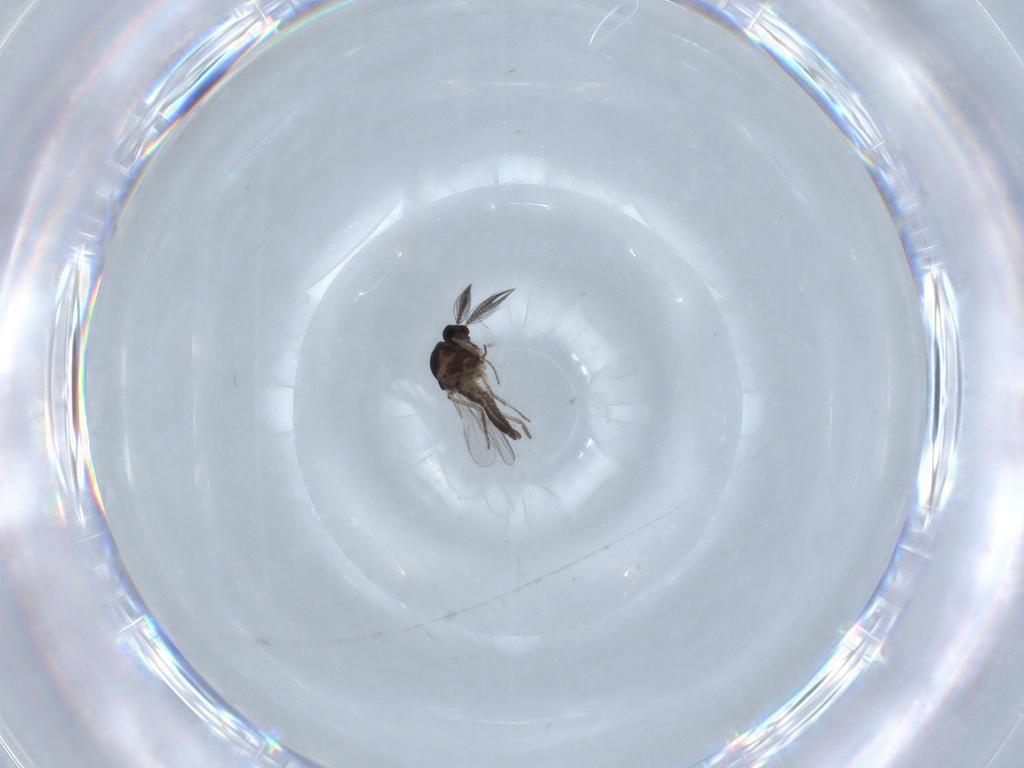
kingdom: Animalia
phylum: Arthropoda
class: Insecta
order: Diptera
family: Ceratopogonidae
